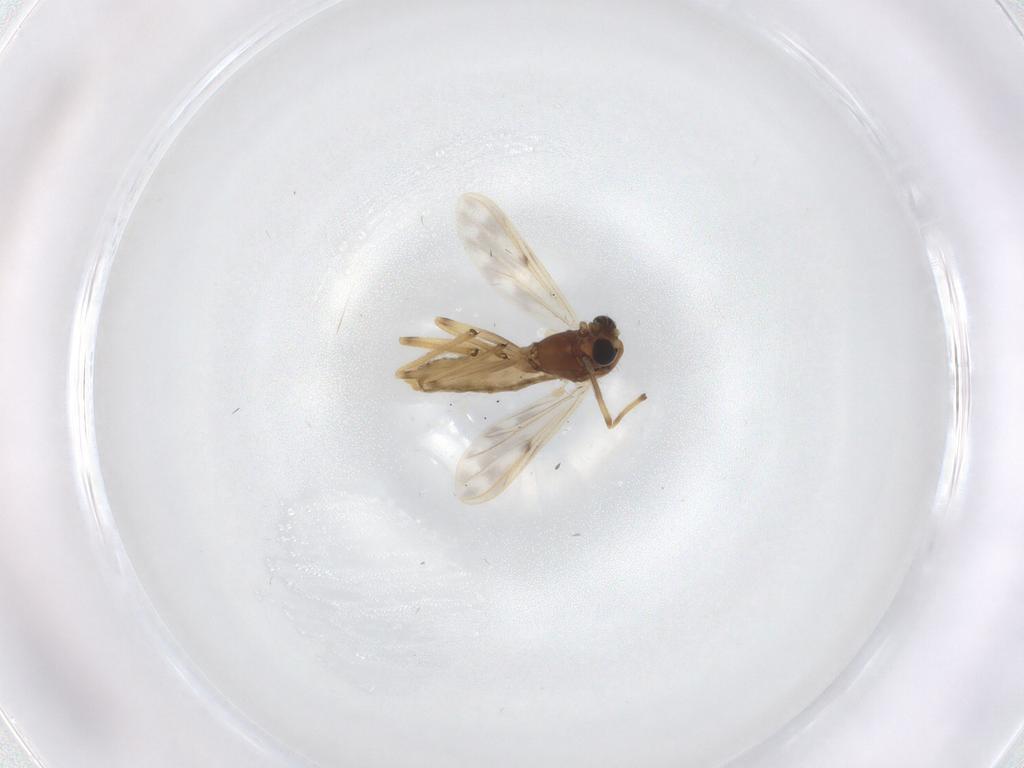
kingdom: Animalia
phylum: Arthropoda
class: Insecta
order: Diptera
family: Chironomidae
